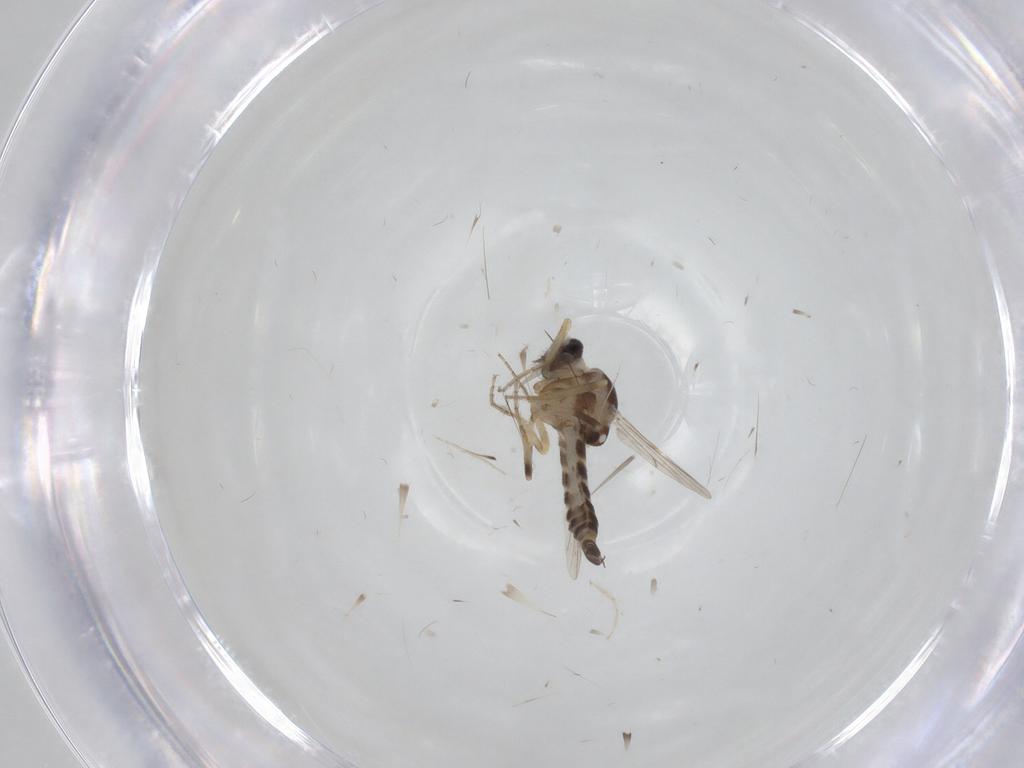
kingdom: Animalia
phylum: Arthropoda
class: Insecta
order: Diptera
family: Ceratopogonidae
